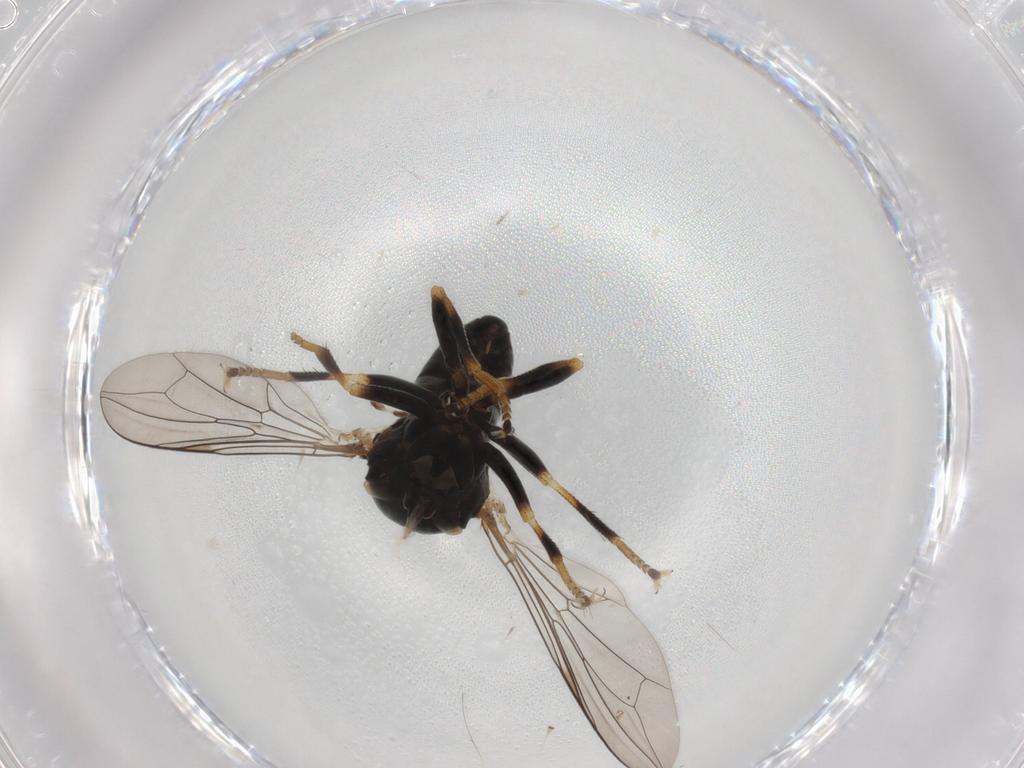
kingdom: Animalia
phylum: Arthropoda
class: Insecta
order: Diptera
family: Pipunculidae
